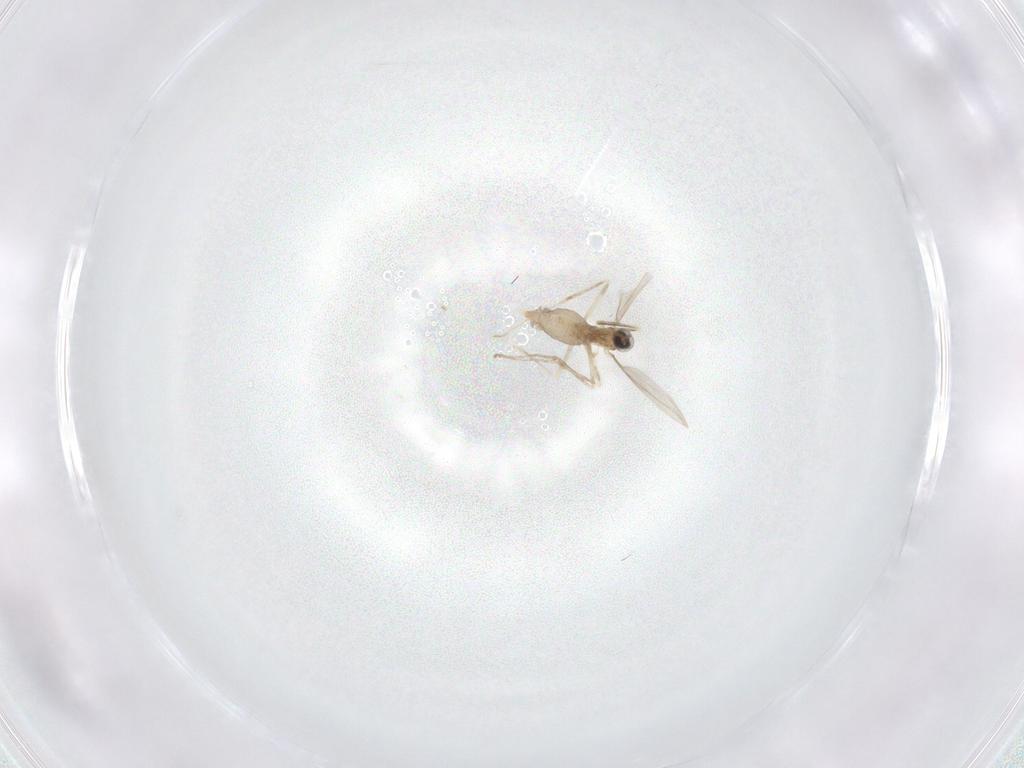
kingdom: Animalia
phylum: Arthropoda
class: Insecta
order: Diptera
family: Cecidomyiidae
